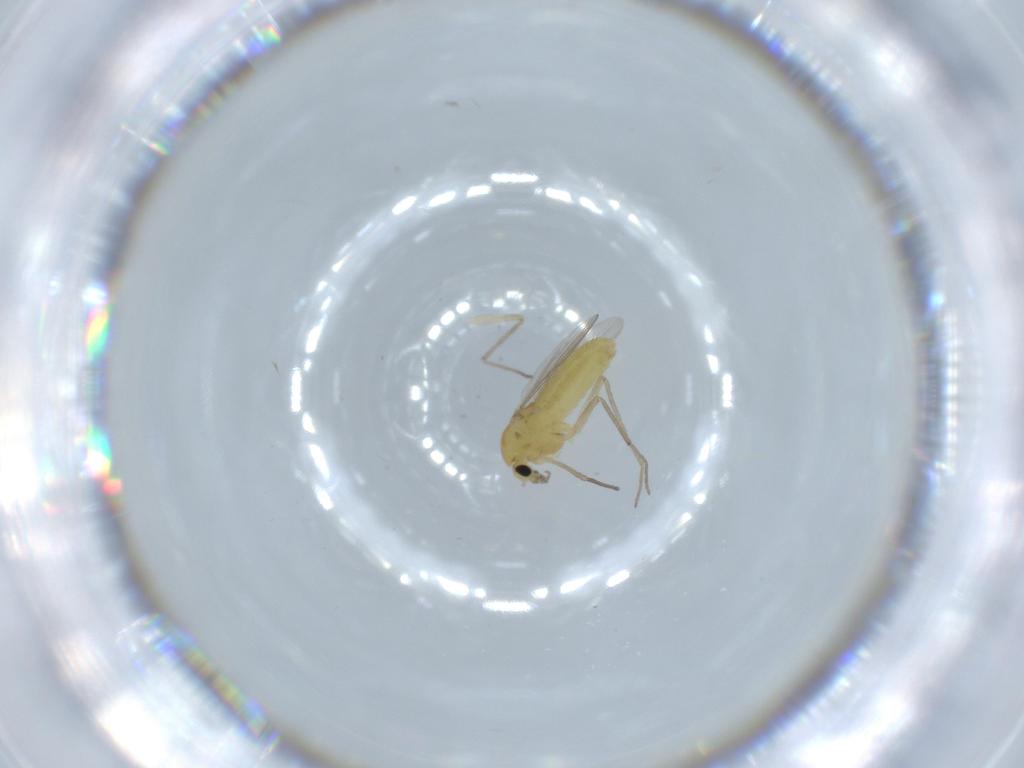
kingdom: Animalia
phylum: Arthropoda
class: Insecta
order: Diptera
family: Chironomidae
